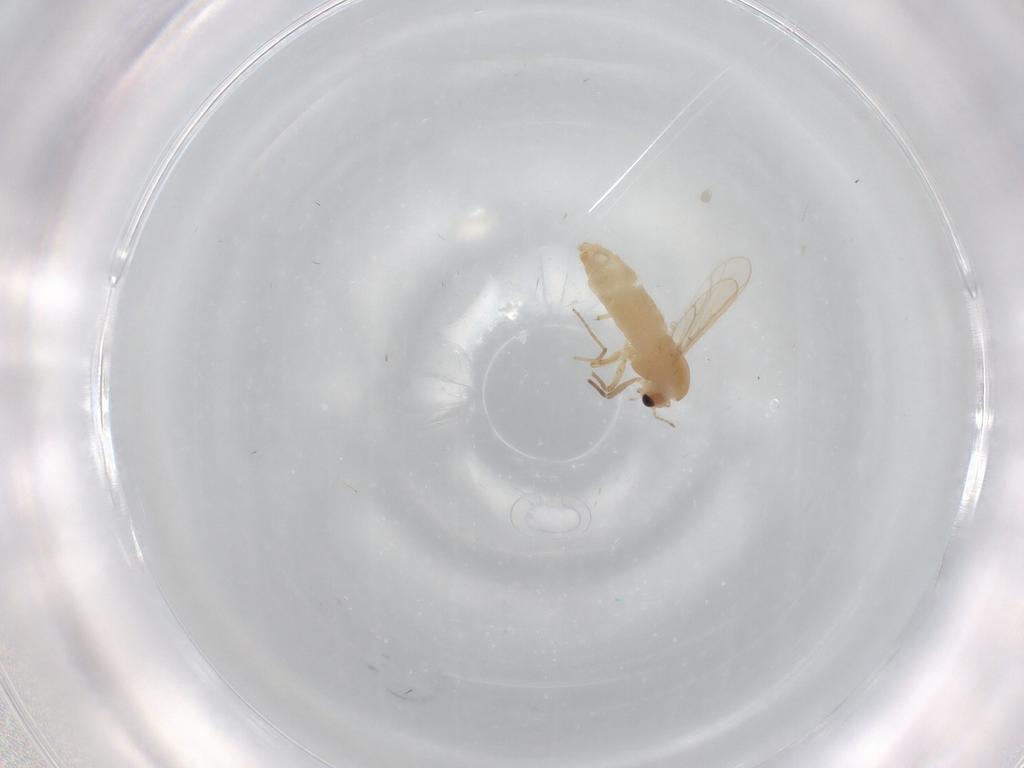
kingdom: Animalia
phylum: Arthropoda
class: Insecta
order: Diptera
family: Chironomidae
